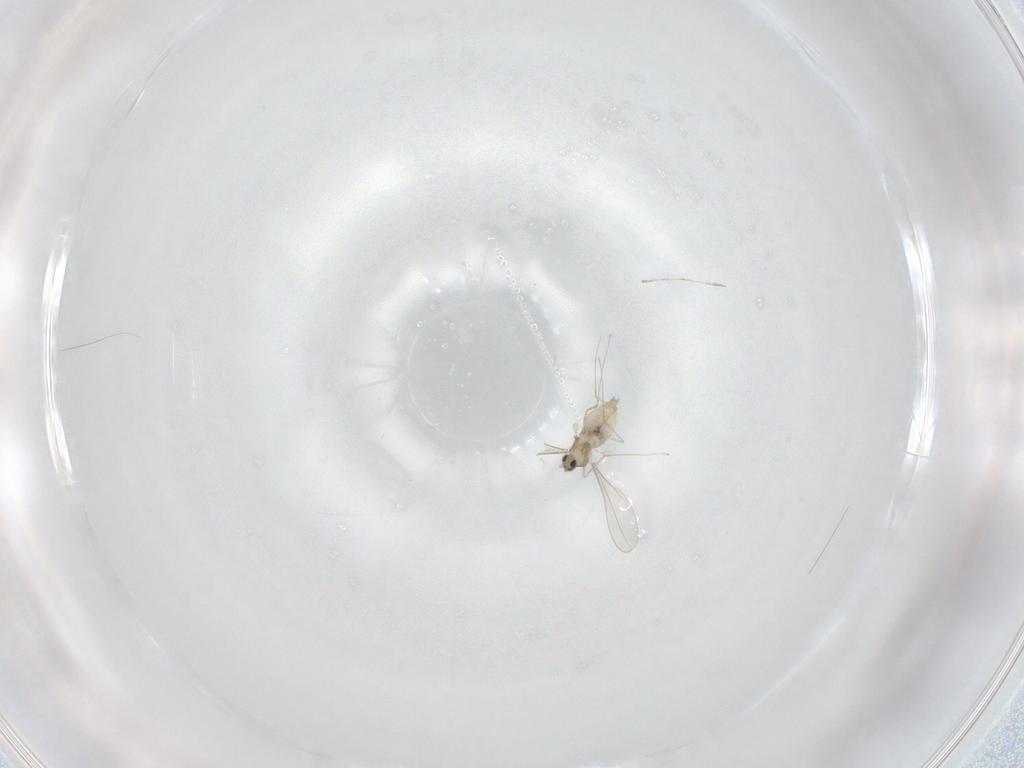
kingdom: Animalia
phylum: Arthropoda
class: Insecta
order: Diptera
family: Cecidomyiidae
